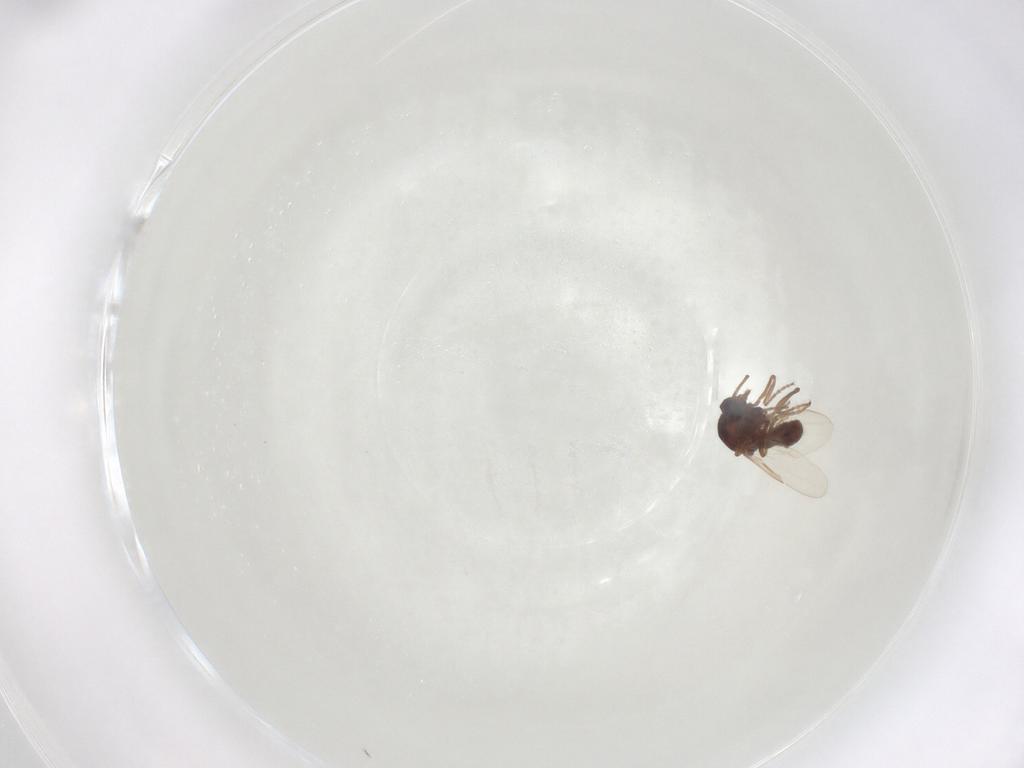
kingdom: Animalia
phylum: Arthropoda
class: Insecta
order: Diptera
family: Ceratopogonidae
